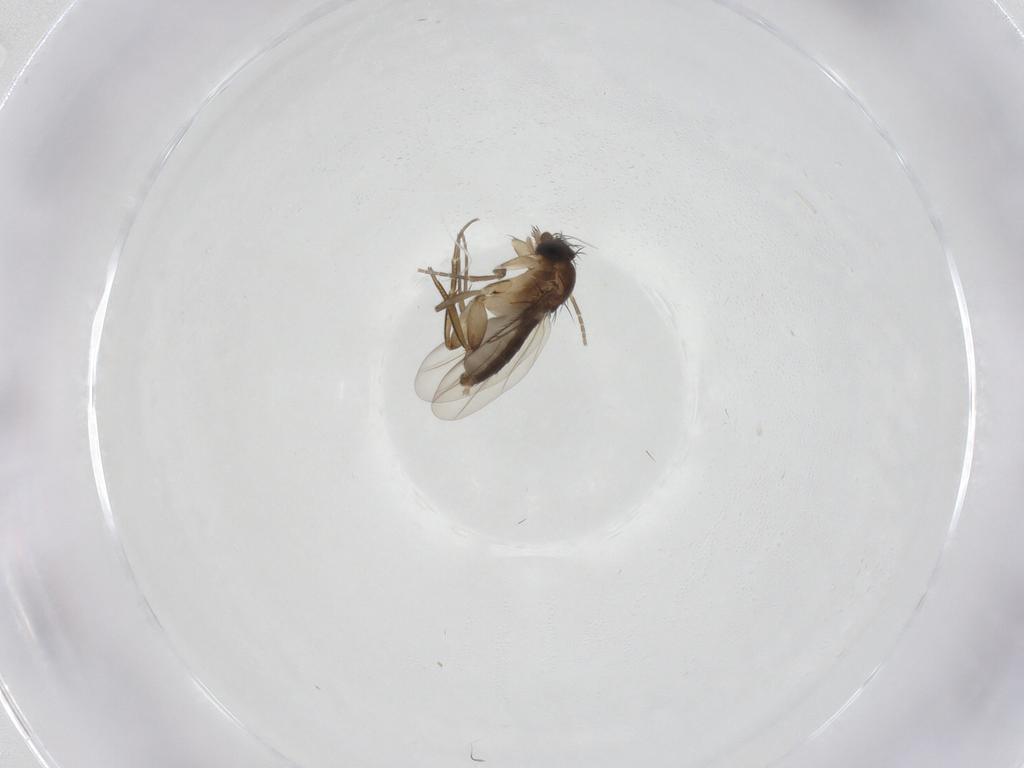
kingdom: Animalia
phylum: Arthropoda
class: Insecta
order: Diptera
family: Phoridae
